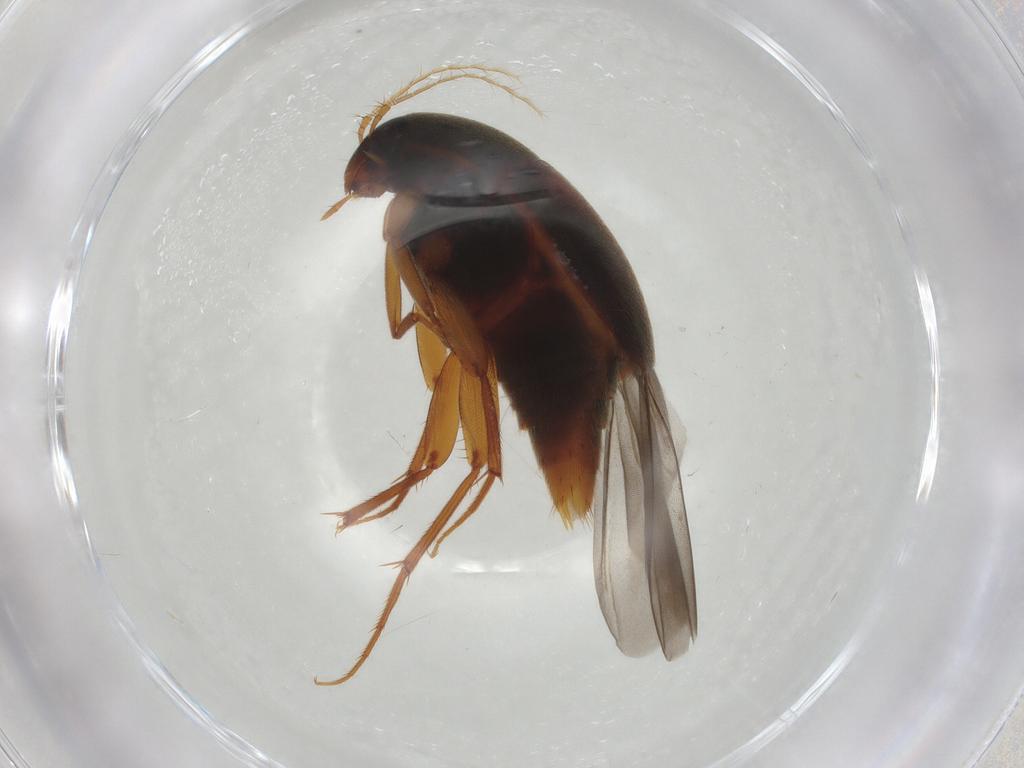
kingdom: Animalia
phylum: Arthropoda
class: Insecta
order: Coleoptera
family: Staphylinidae
